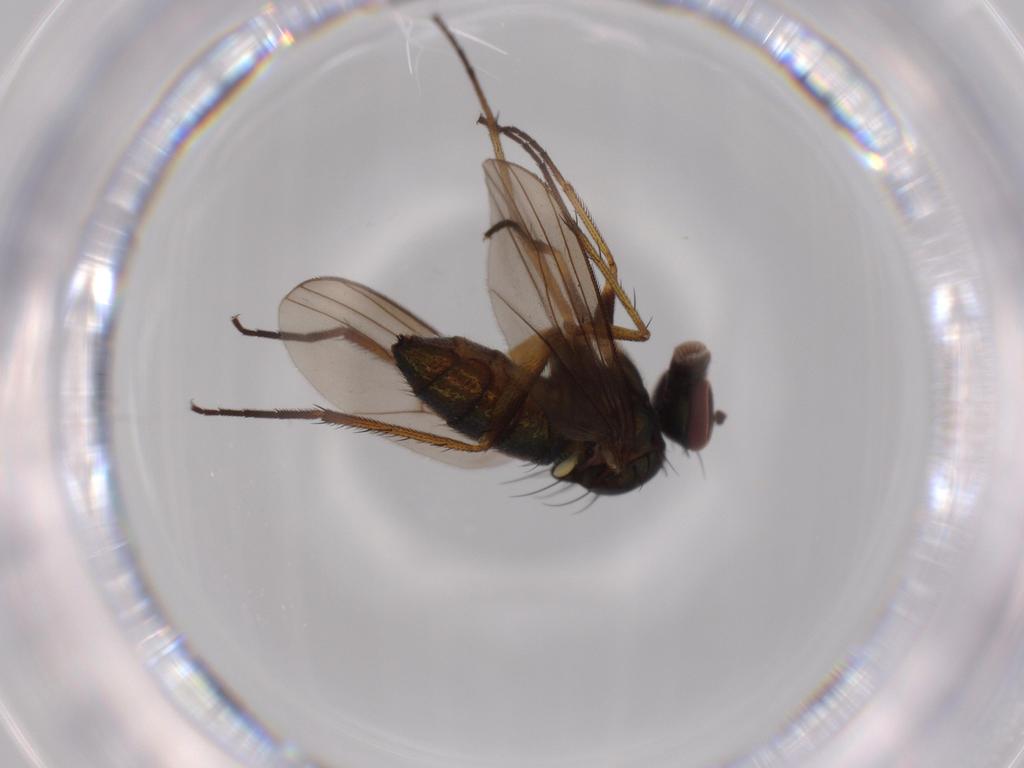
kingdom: Animalia
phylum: Arthropoda
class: Insecta
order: Diptera
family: Dolichopodidae
